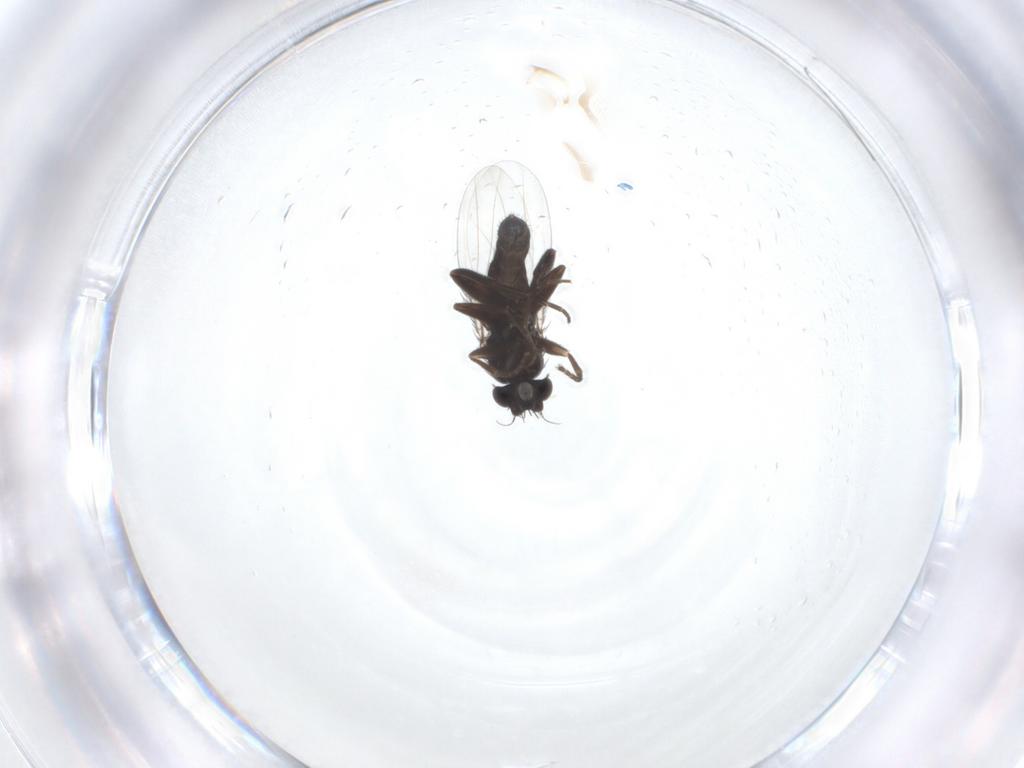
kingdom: Animalia
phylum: Arthropoda
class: Insecta
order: Diptera
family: Phoridae
